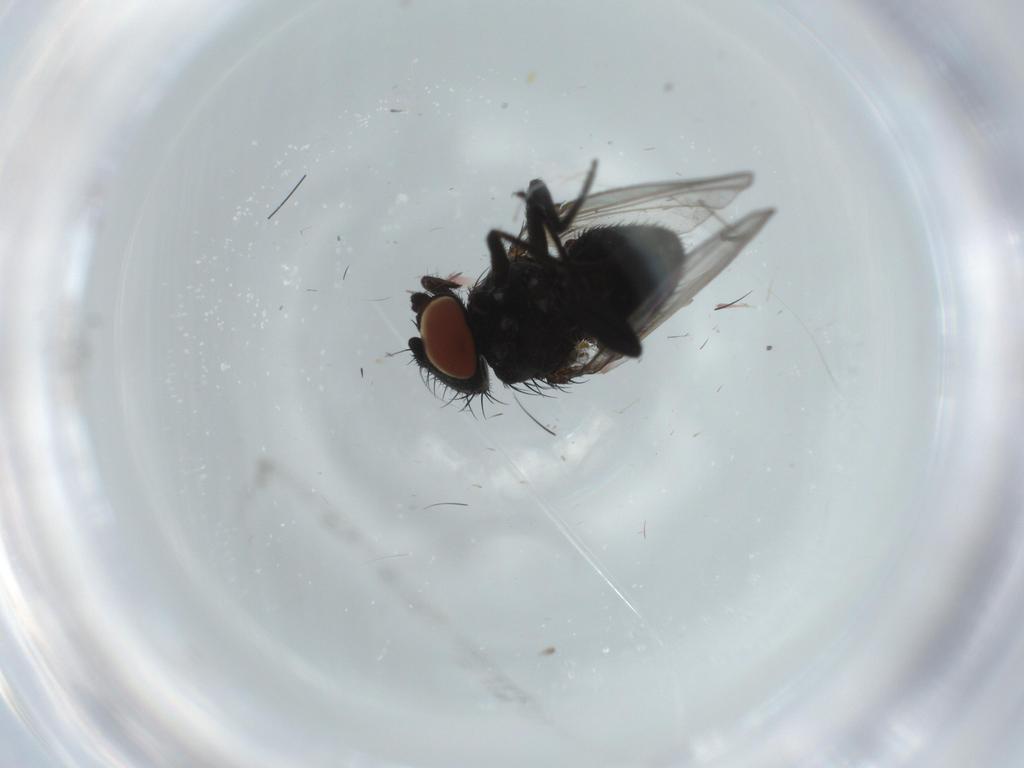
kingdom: Animalia
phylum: Arthropoda
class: Insecta
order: Diptera
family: Milichiidae
